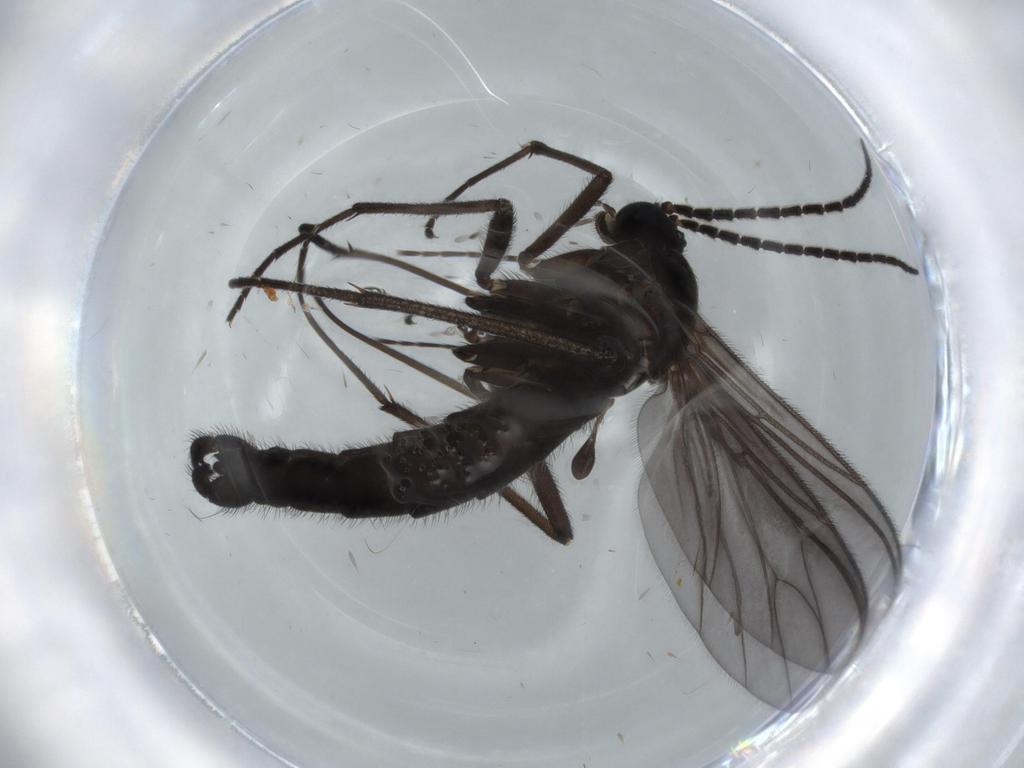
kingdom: Animalia
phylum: Arthropoda
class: Insecta
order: Diptera
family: Chironomidae
